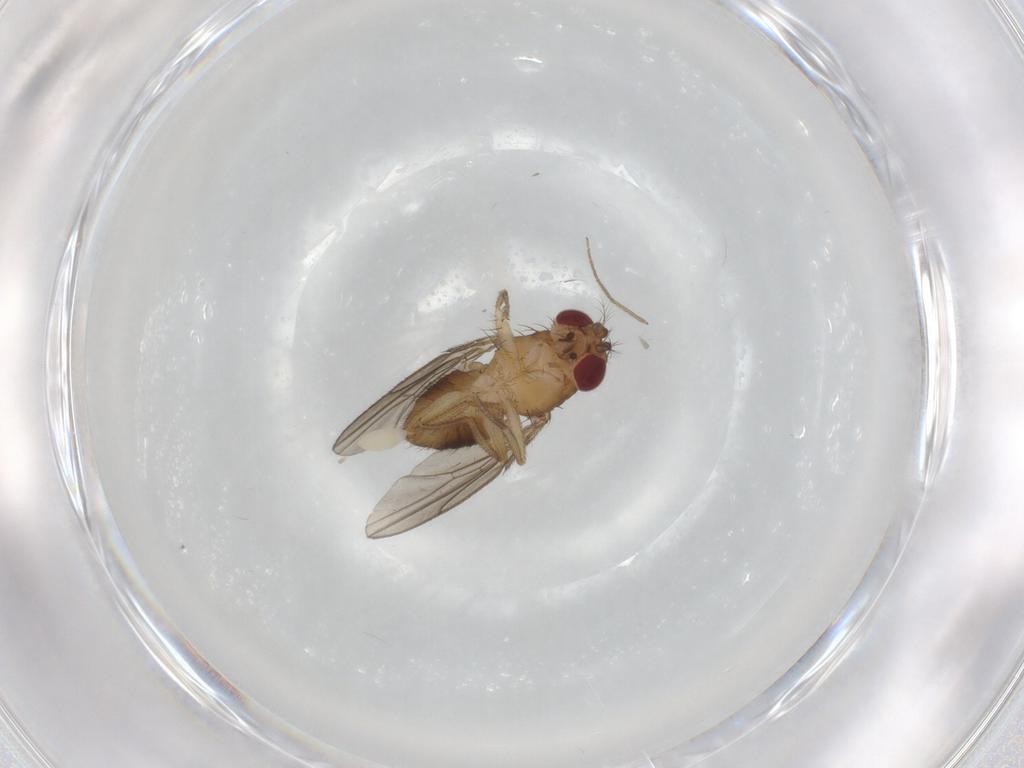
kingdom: Animalia
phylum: Arthropoda
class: Insecta
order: Diptera
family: Drosophilidae
